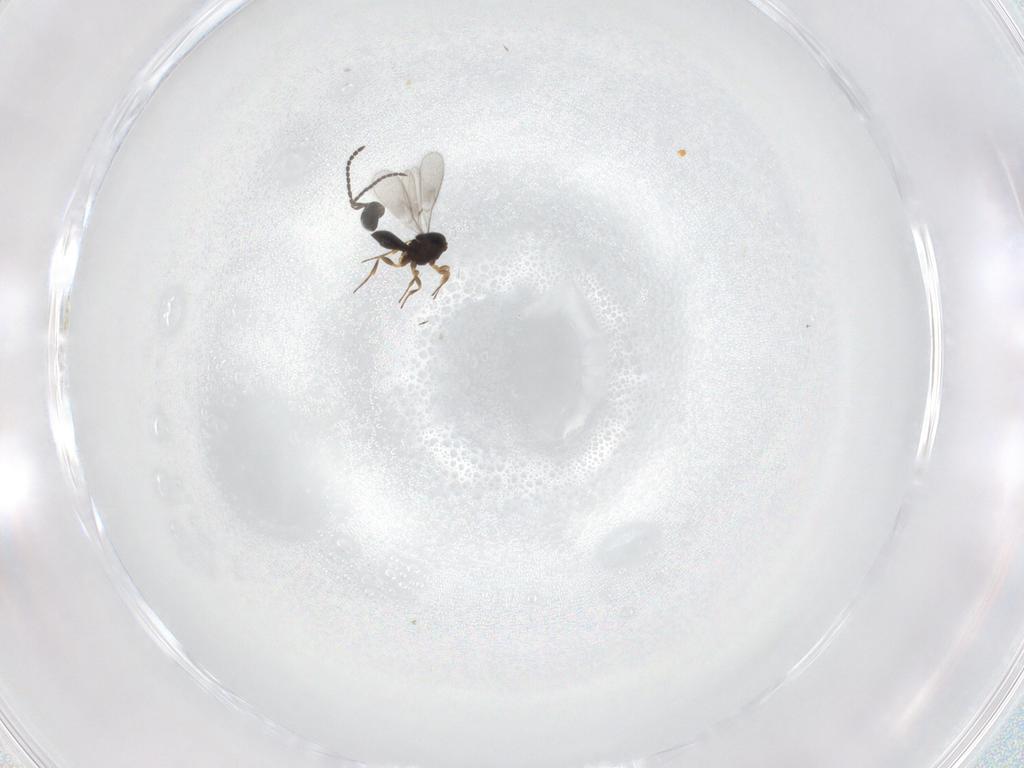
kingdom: Animalia
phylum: Arthropoda
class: Insecta
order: Hymenoptera
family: Scelionidae
